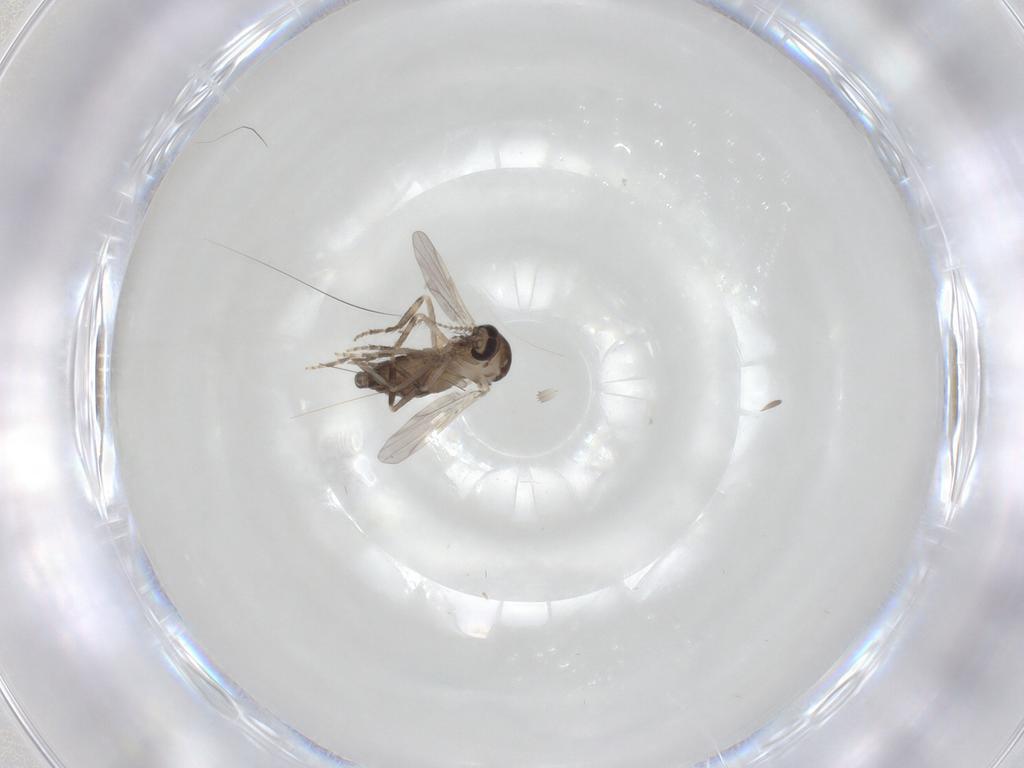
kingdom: Animalia
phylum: Arthropoda
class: Insecta
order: Diptera
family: Ceratopogonidae
